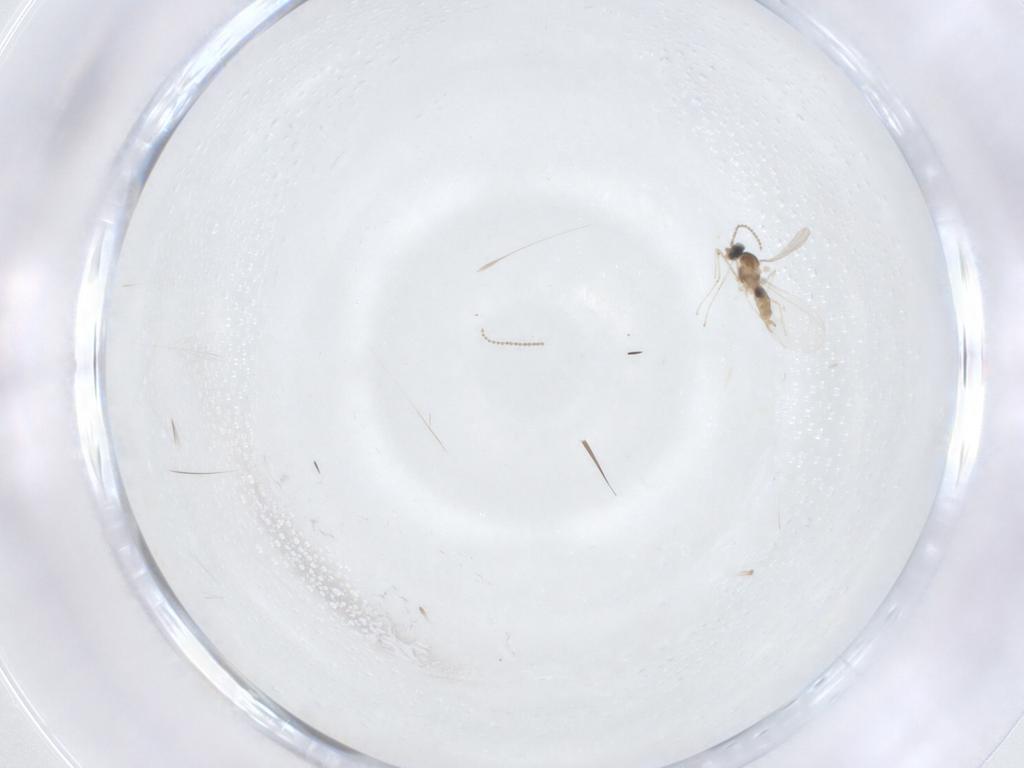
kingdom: Animalia
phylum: Arthropoda
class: Insecta
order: Diptera
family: Cecidomyiidae
